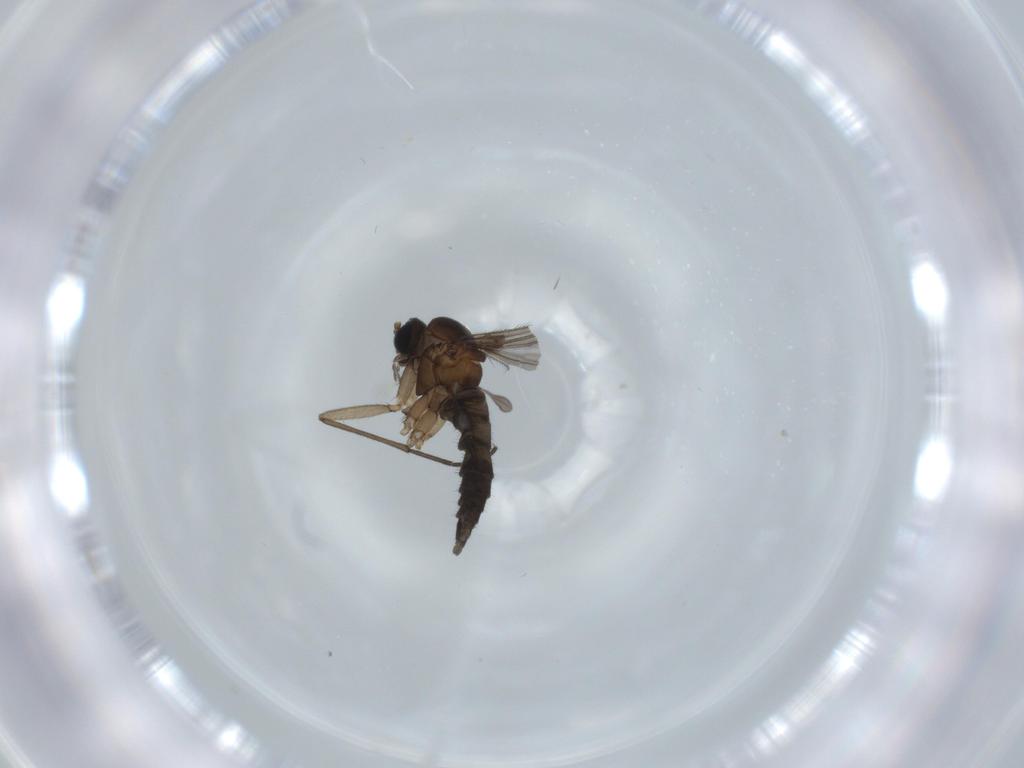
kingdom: Animalia
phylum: Arthropoda
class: Insecta
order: Diptera
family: Sciaridae
